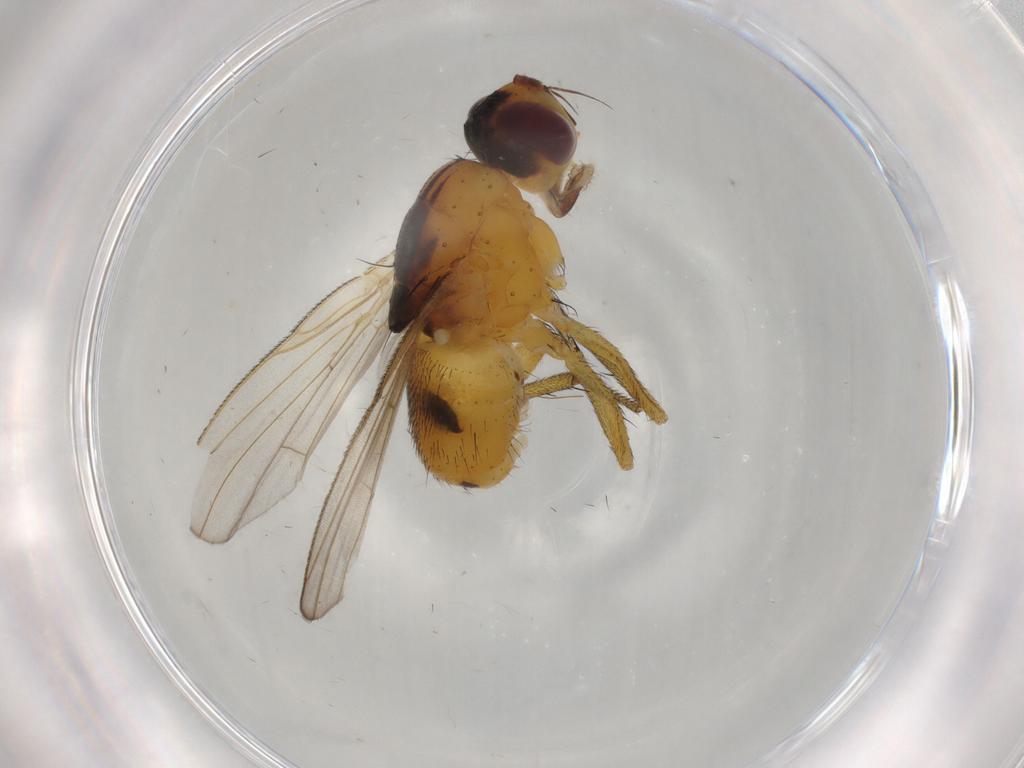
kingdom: Animalia
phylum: Arthropoda
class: Insecta
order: Diptera
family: Muscidae
